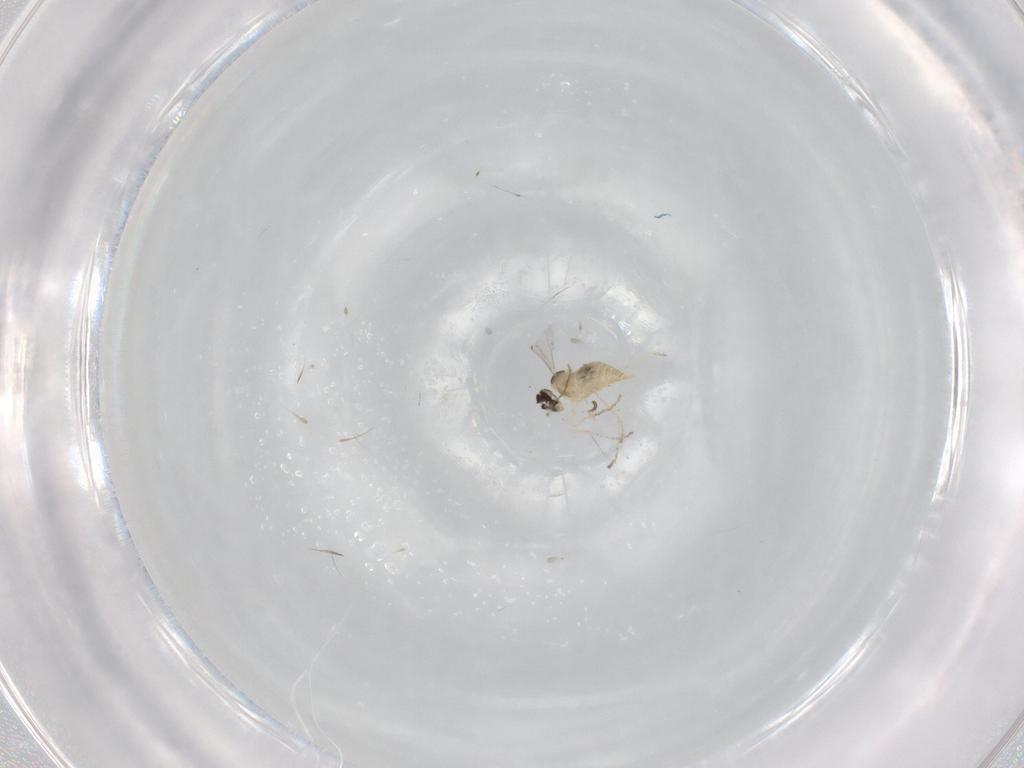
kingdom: Animalia
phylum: Arthropoda
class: Insecta
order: Diptera
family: Cecidomyiidae
